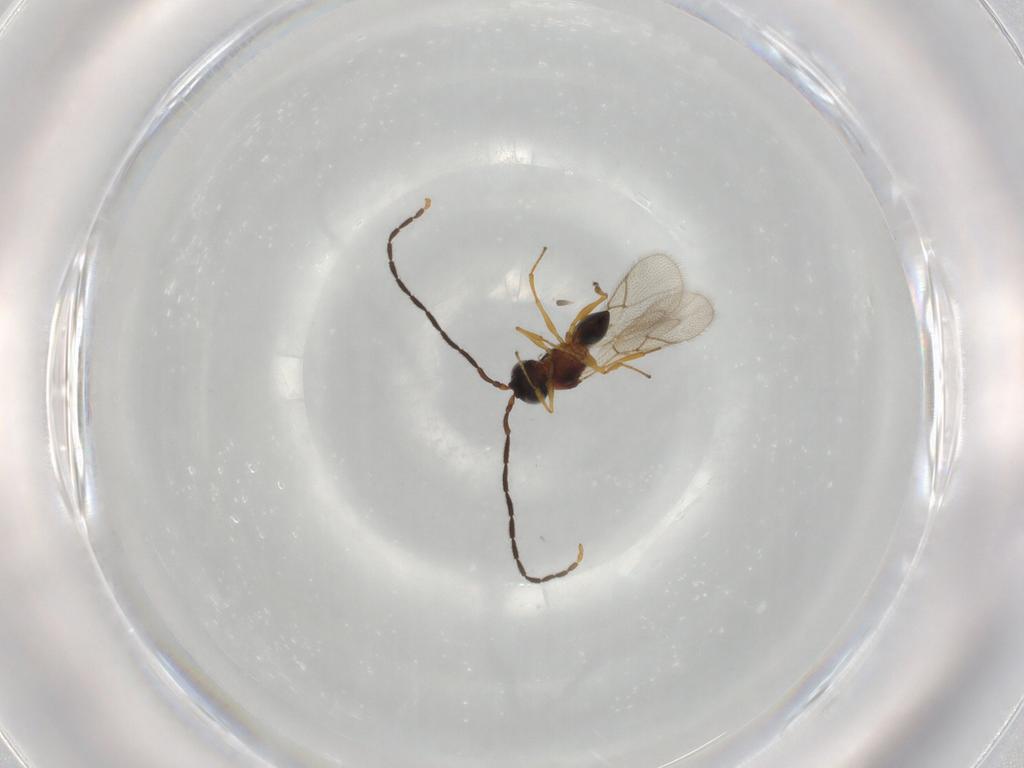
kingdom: Animalia
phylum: Arthropoda
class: Insecta
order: Hymenoptera
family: Figitidae
